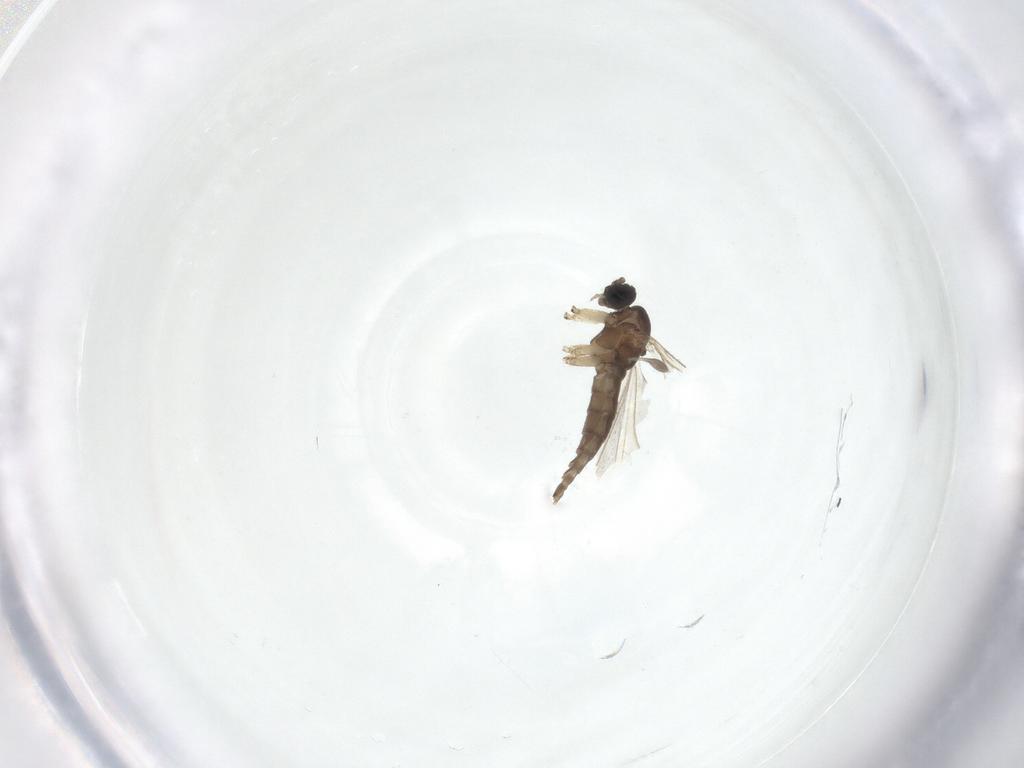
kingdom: Animalia
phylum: Arthropoda
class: Insecta
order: Diptera
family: Sciaridae
